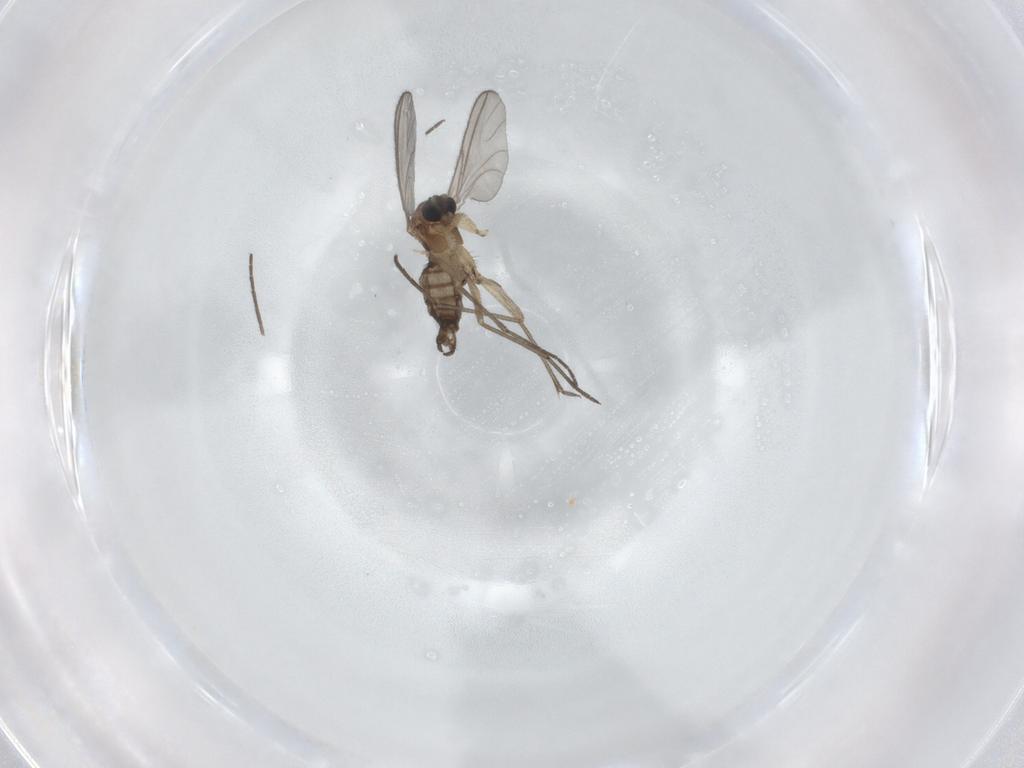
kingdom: Animalia
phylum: Arthropoda
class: Insecta
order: Diptera
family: Sciaridae
